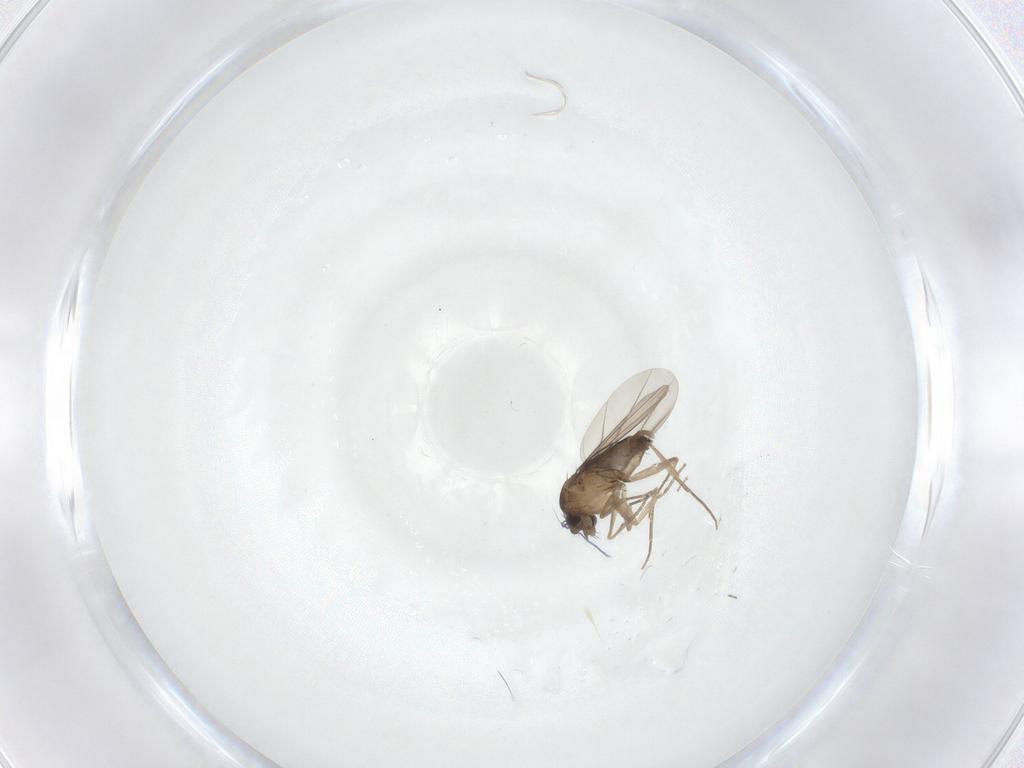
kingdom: Animalia
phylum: Arthropoda
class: Insecta
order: Diptera
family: Phoridae
